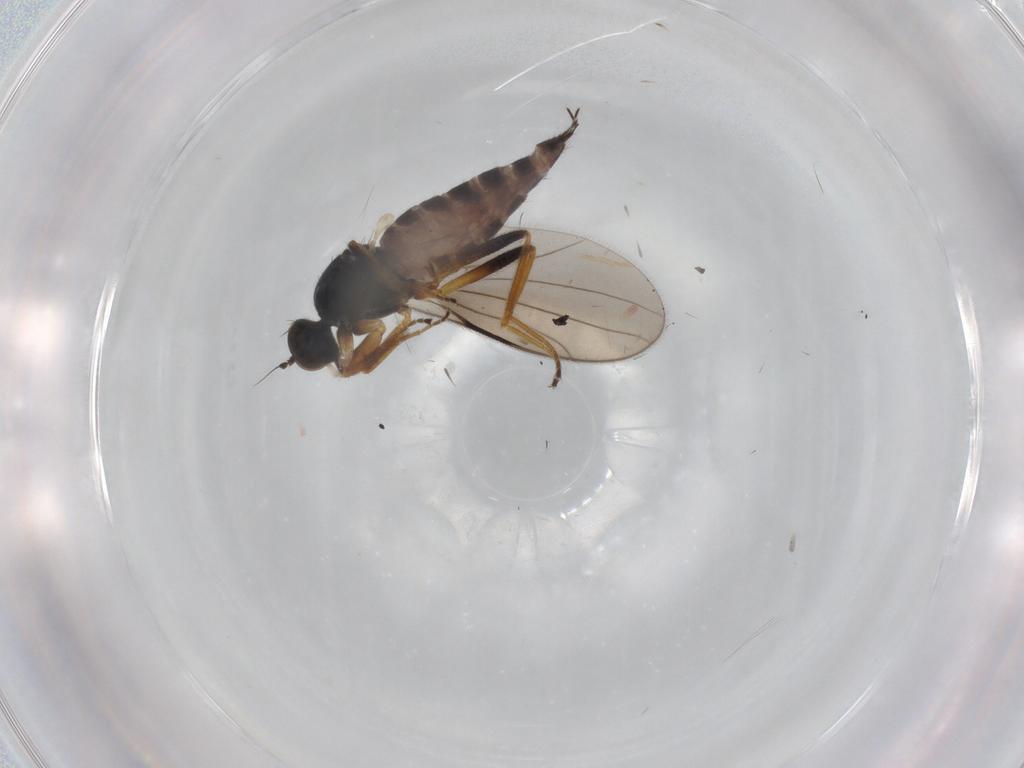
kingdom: Animalia
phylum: Arthropoda
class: Insecta
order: Diptera
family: Hybotidae
